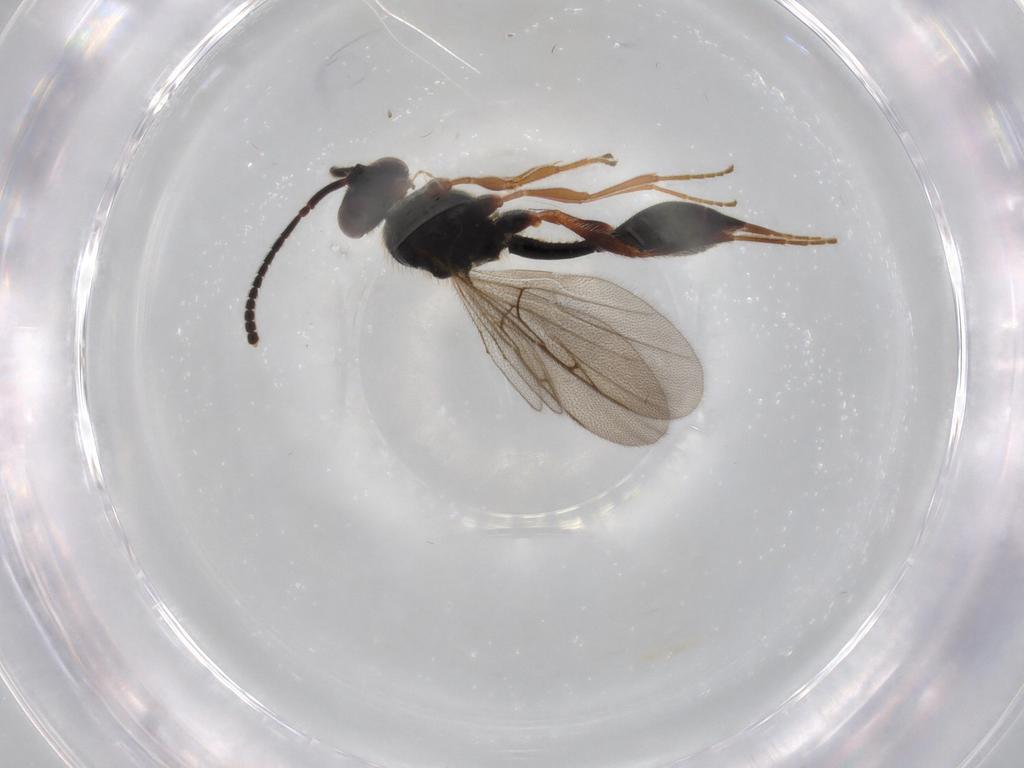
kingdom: Animalia
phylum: Arthropoda
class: Insecta
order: Hymenoptera
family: Diapriidae
